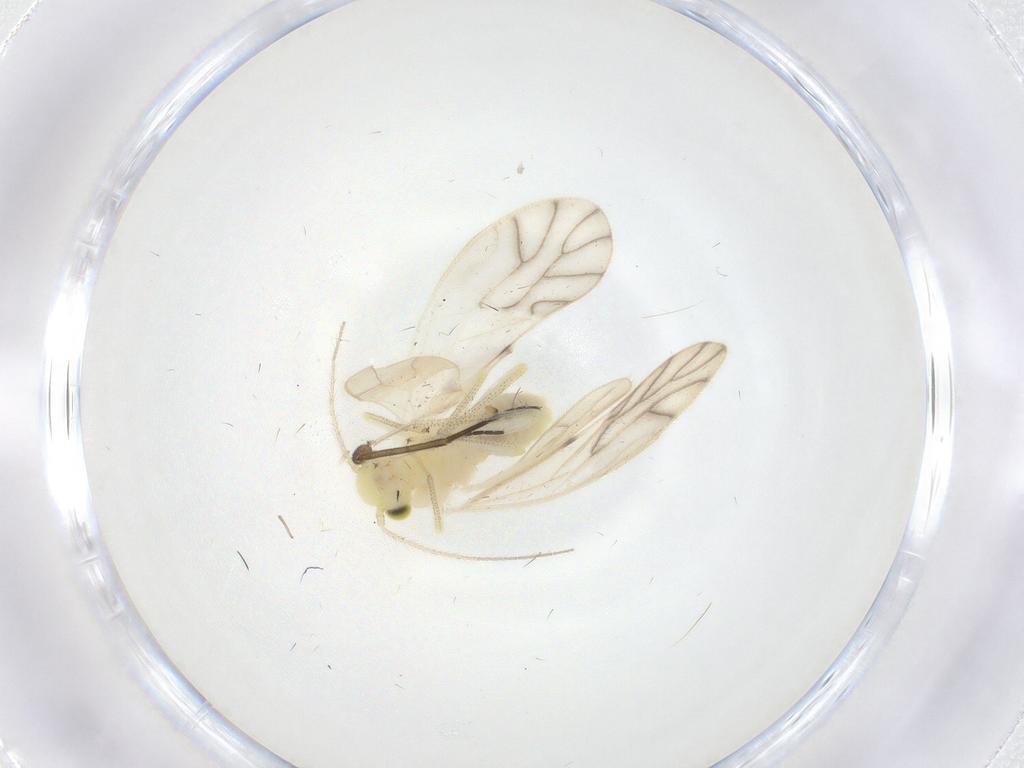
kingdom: Animalia
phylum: Arthropoda
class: Insecta
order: Psocodea
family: Caeciliusidae
